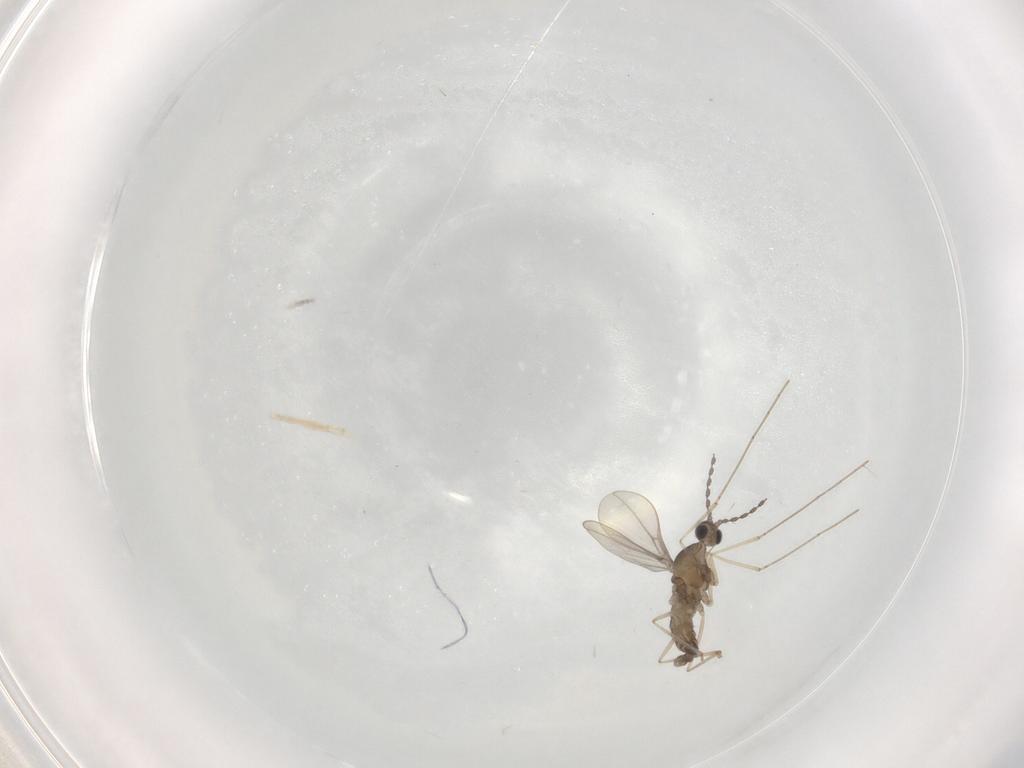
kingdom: Animalia
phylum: Arthropoda
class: Insecta
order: Diptera
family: Cecidomyiidae
